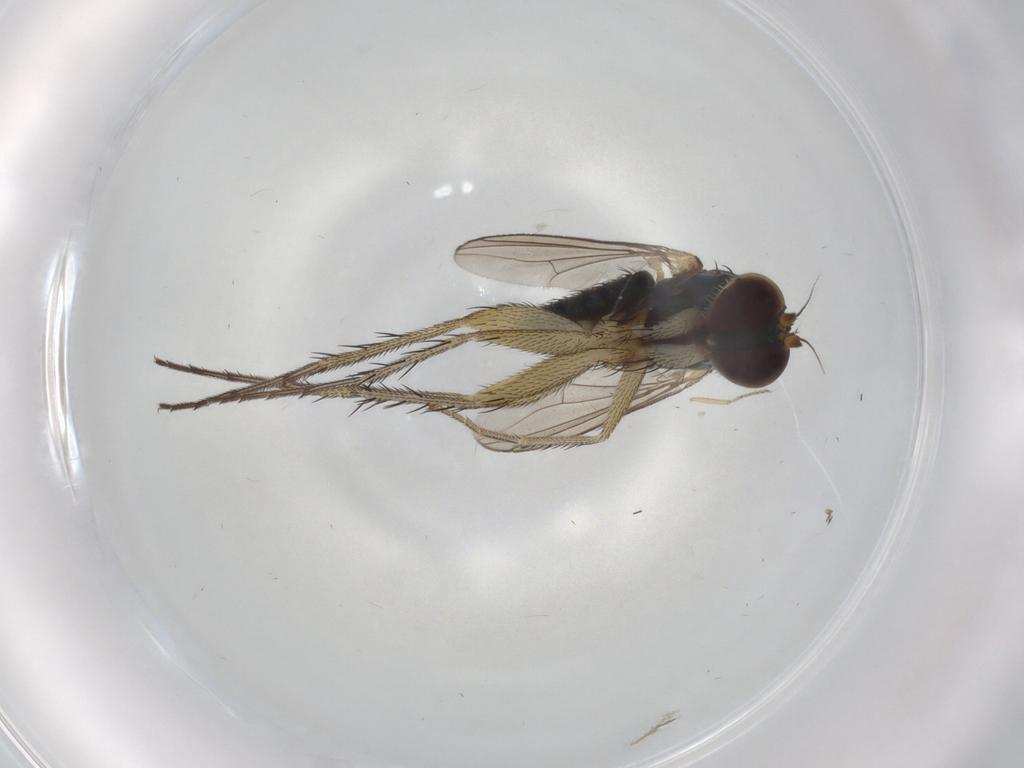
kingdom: Animalia
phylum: Arthropoda
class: Insecta
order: Diptera
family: Dolichopodidae
